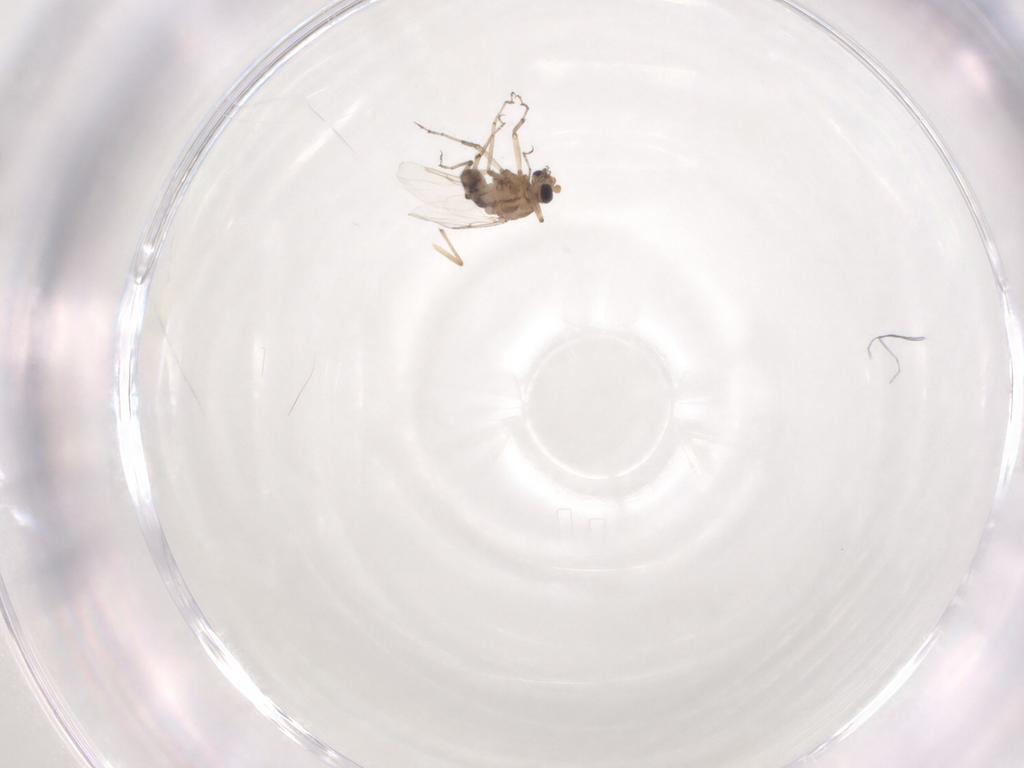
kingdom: Animalia
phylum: Arthropoda
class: Insecta
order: Diptera
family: Ceratopogonidae
